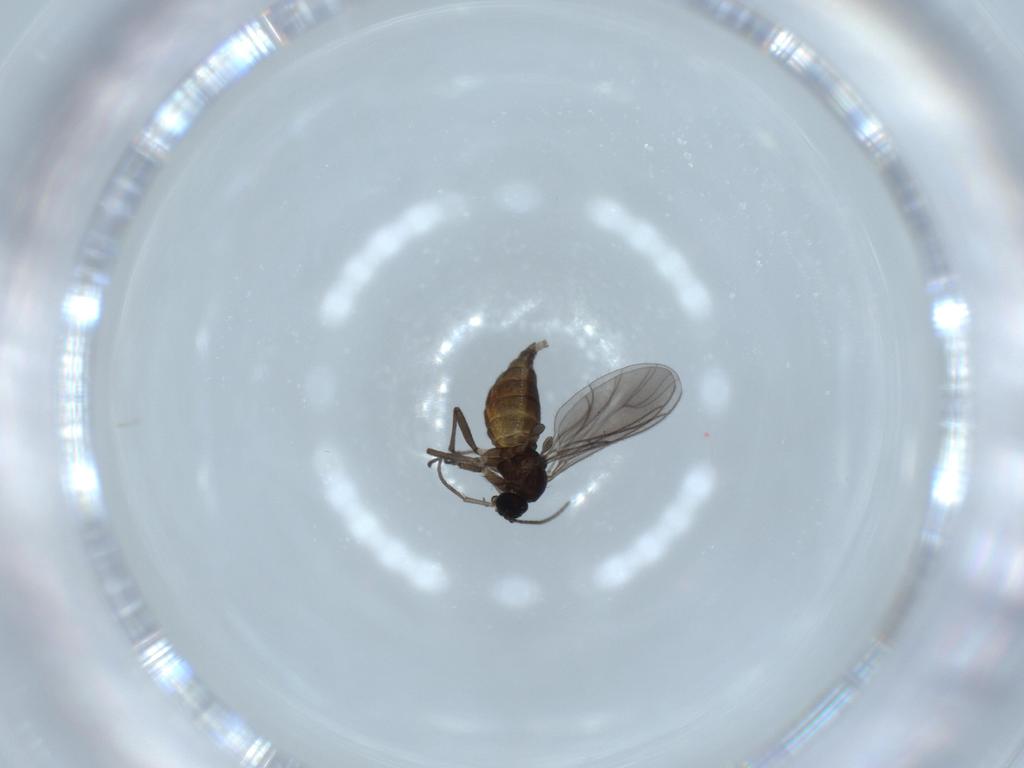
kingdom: Animalia
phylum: Arthropoda
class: Insecta
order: Diptera
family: Sciaridae
